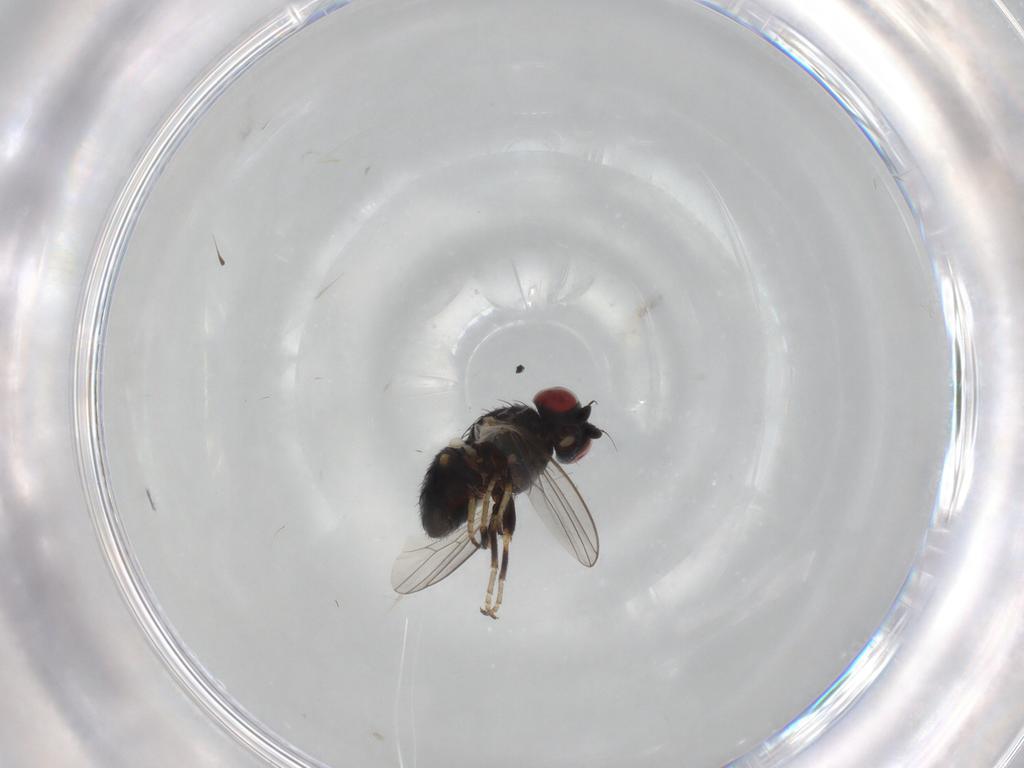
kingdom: Animalia
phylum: Arthropoda
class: Insecta
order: Diptera
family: Chamaemyiidae
